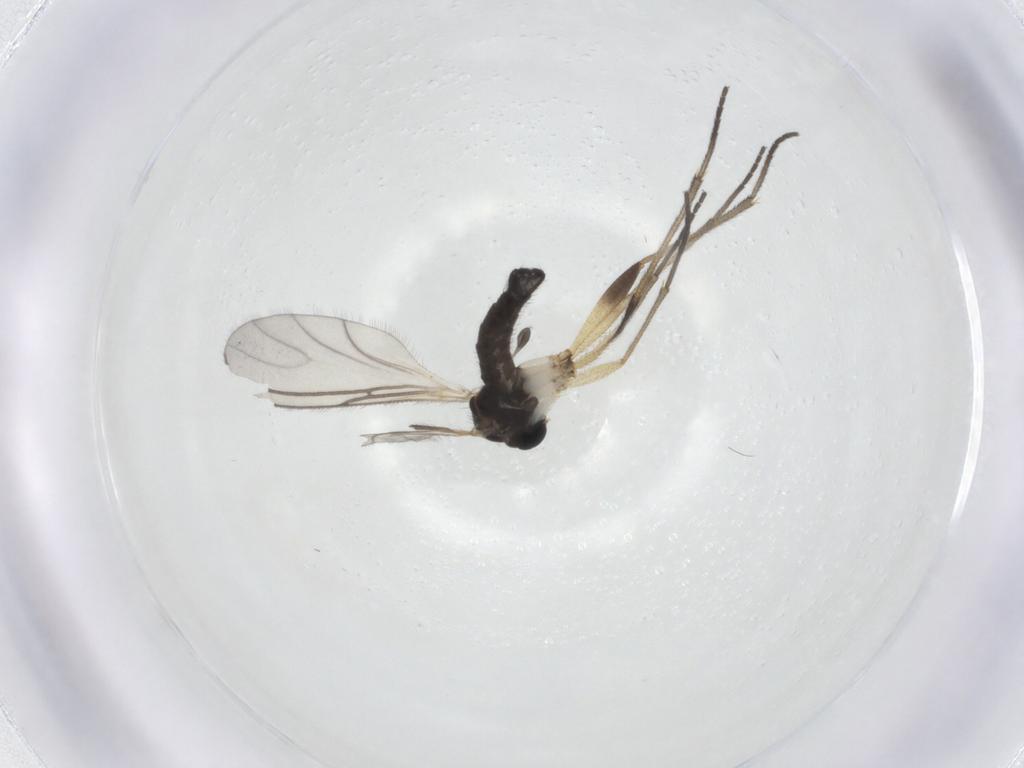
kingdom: Animalia
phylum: Arthropoda
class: Insecta
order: Diptera
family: Sciaridae
